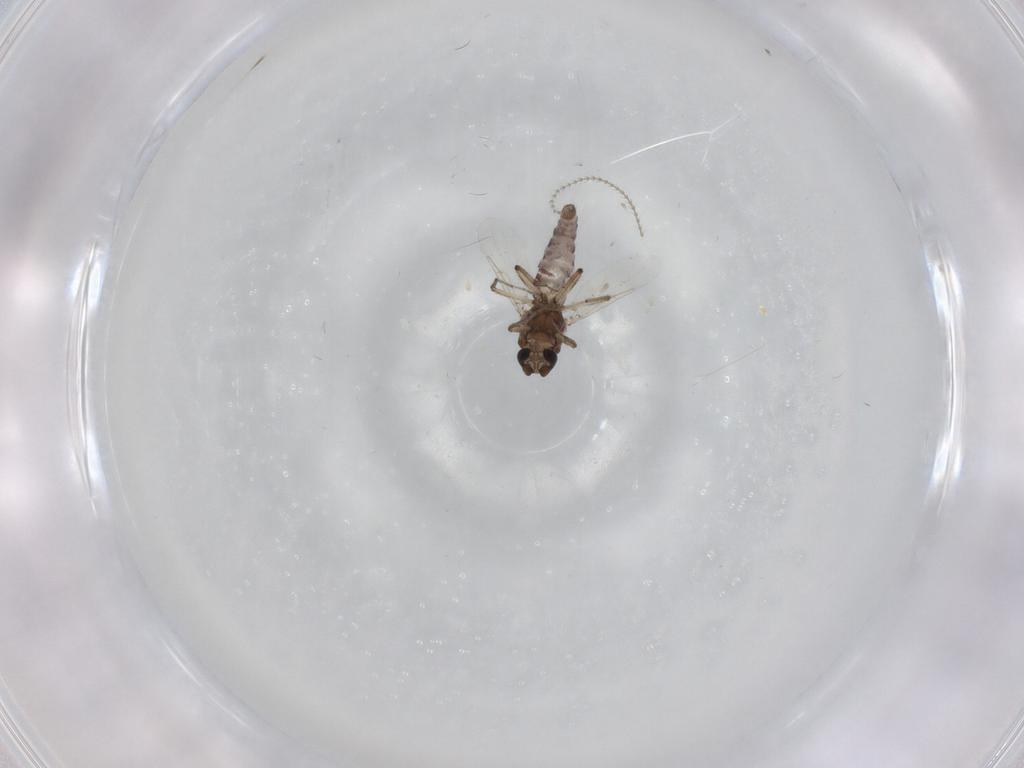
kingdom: Animalia
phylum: Arthropoda
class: Insecta
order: Diptera
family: Ceratopogonidae
